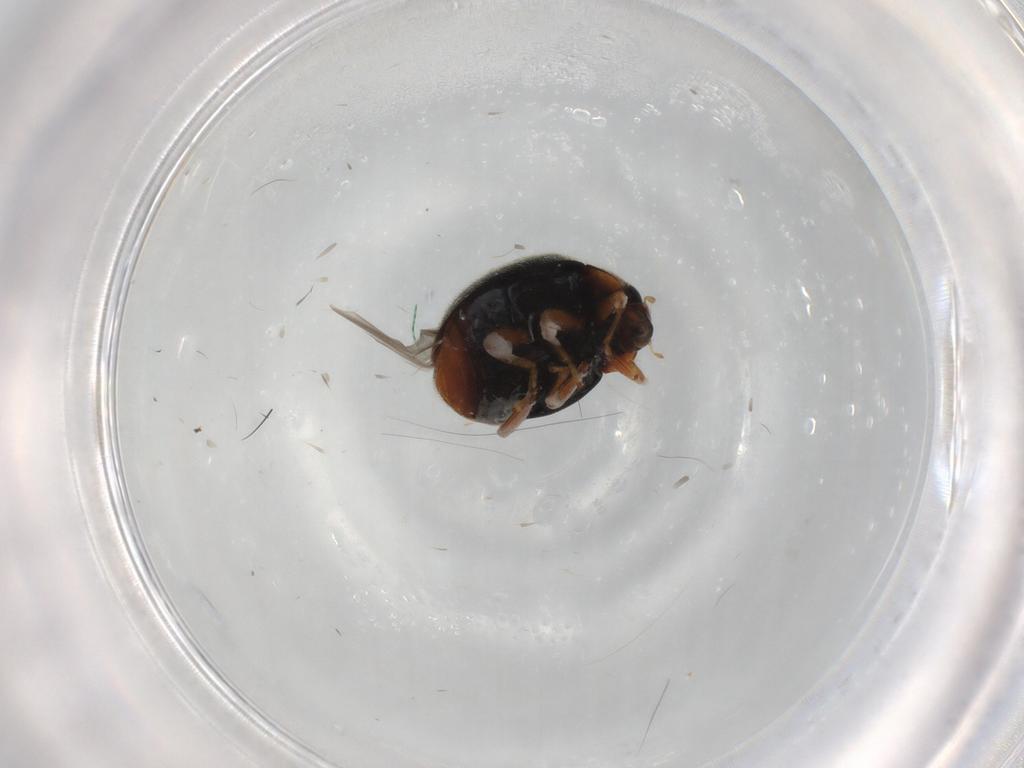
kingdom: Animalia
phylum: Arthropoda
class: Insecta
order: Coleoptera
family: Coccinellidae
